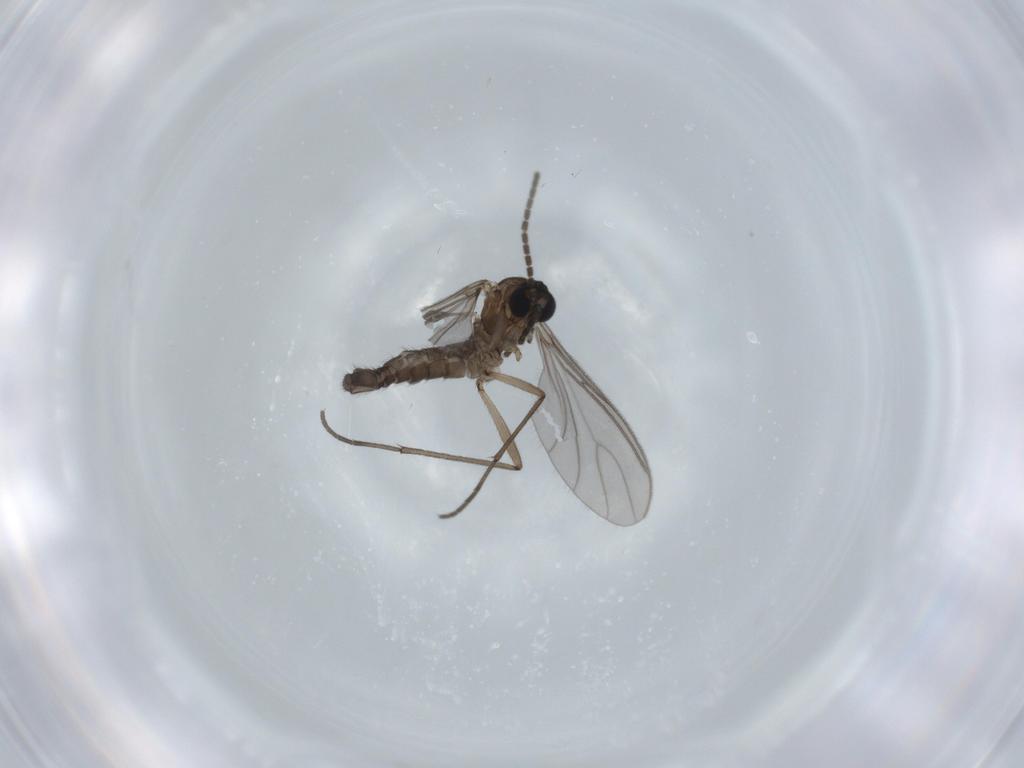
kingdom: Animalia
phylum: Arthropoda
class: Insecta
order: Diptera
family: Sciaridae
